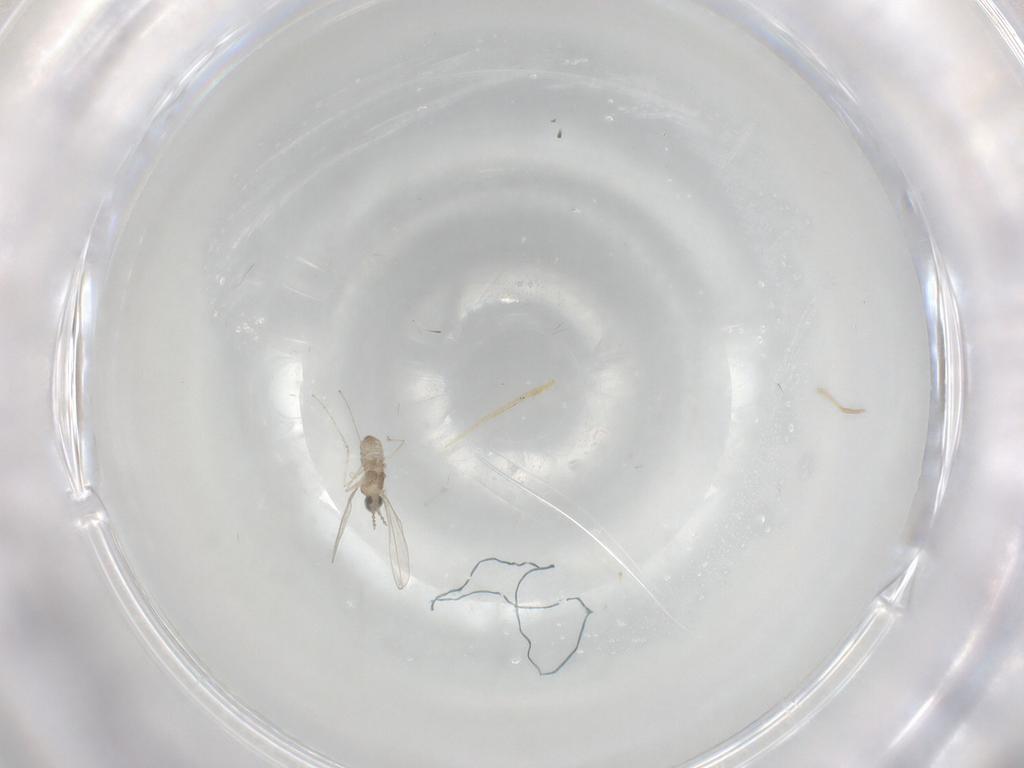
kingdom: Animalia
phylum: Arthropoda
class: Insecta
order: Diptera
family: Cecidomyiidae
